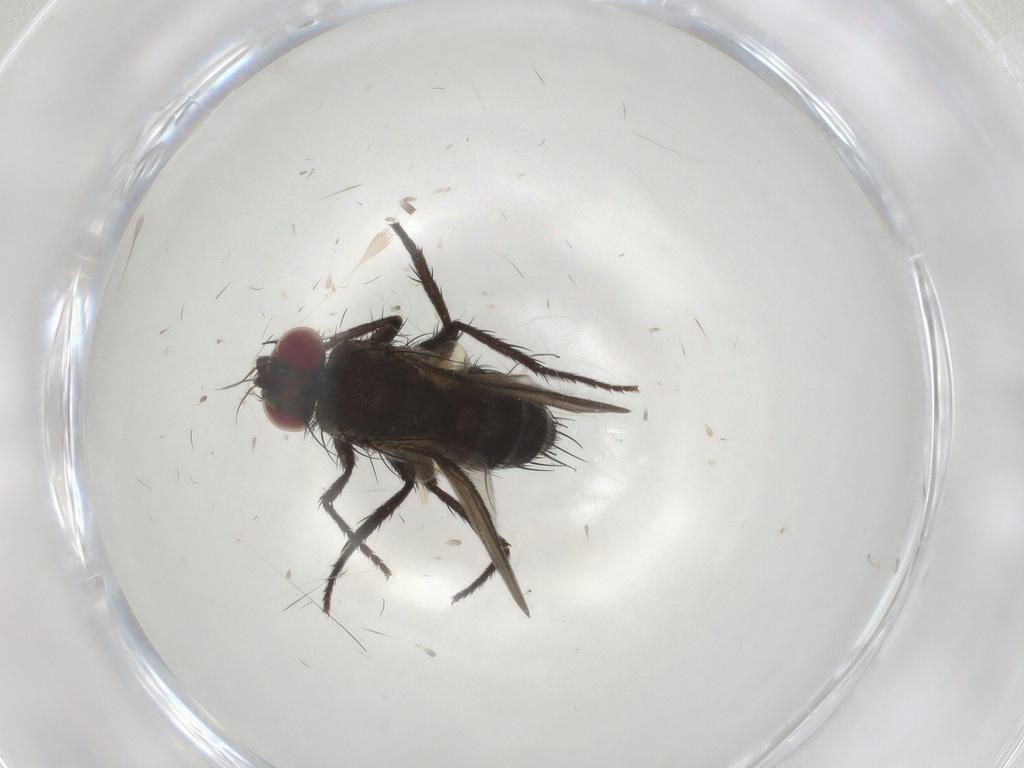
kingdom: Animalia
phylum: Arthropoda
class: Insecta
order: Diptera
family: Tachinidae
